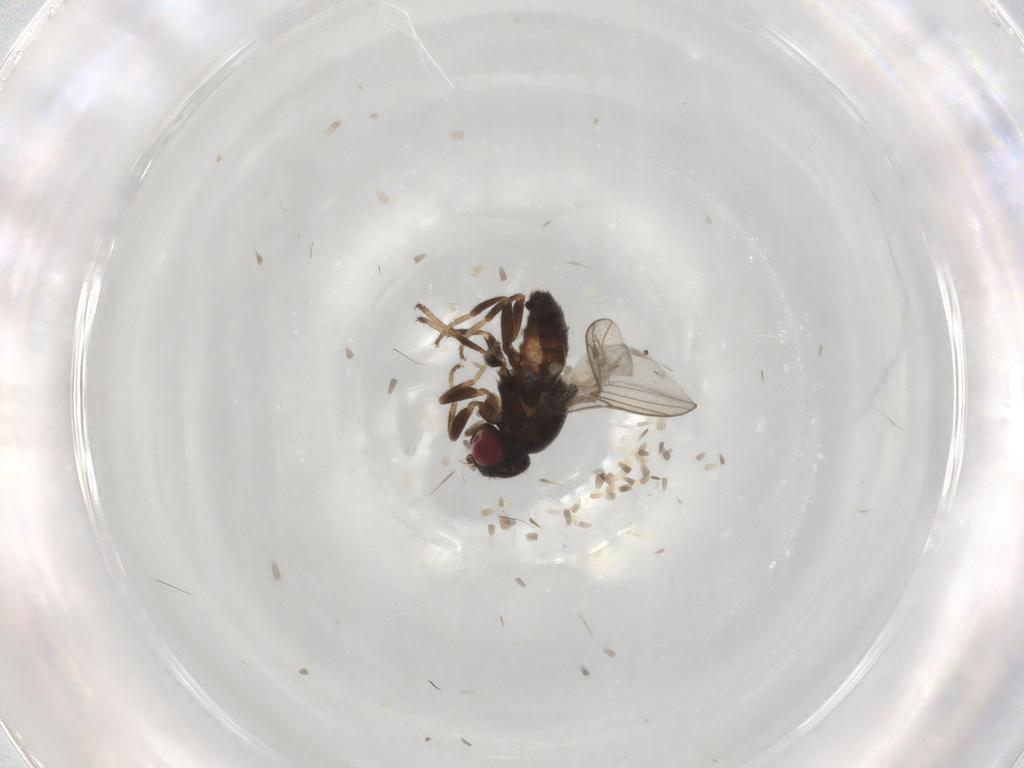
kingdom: Animalia
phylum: Arthropoda
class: Insecta
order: Diptera
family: Chloropidae
